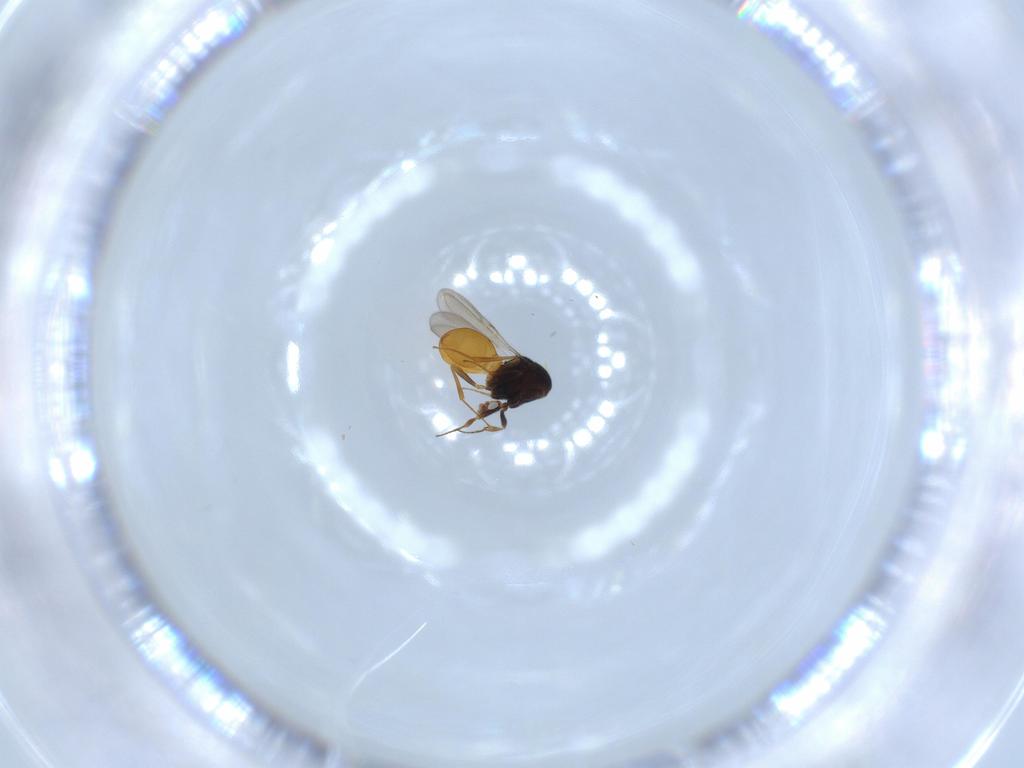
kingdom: Animalia
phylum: Arthropoda
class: Insecta
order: Hymenoptera
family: Scelionidae
